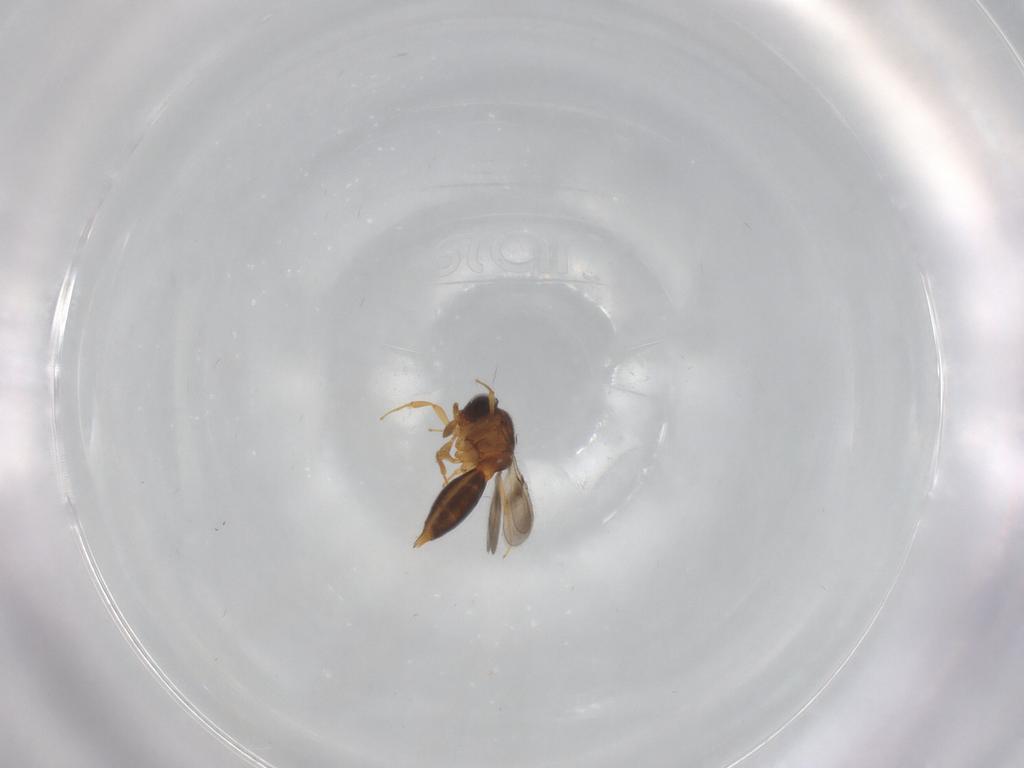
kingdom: Animalia
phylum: Arthropoda
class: Insecta
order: Hymenoptera
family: Scelionidae
